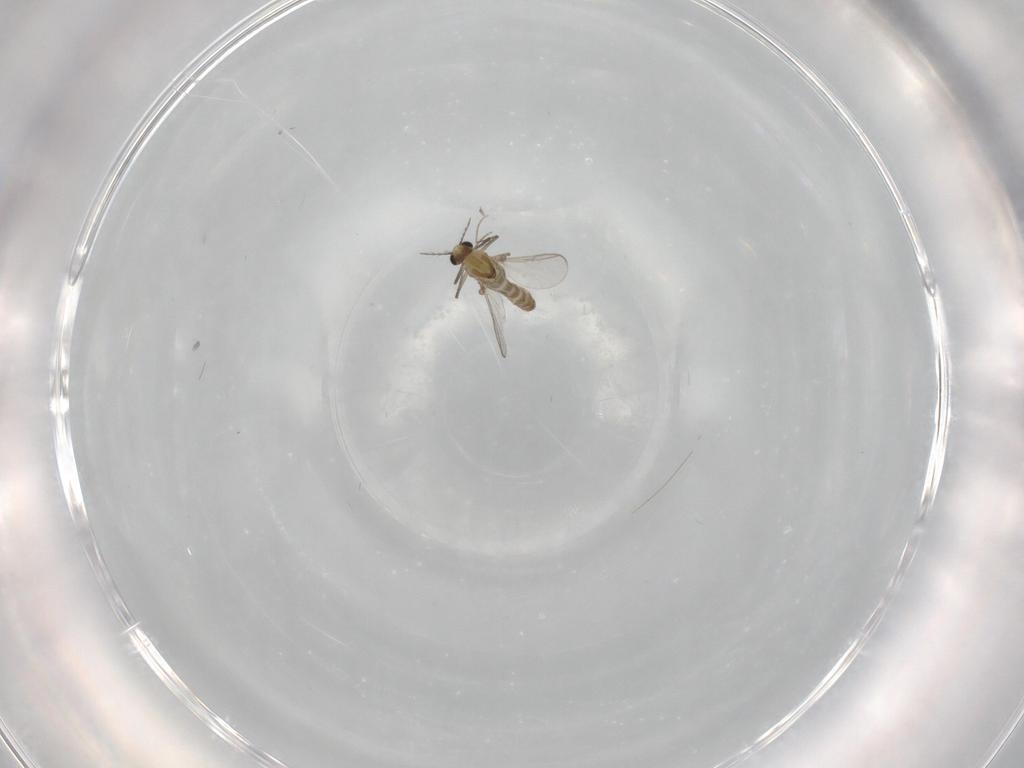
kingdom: Animalia
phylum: Arthropoda
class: Insecta
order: Diptera
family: Chironomidae
